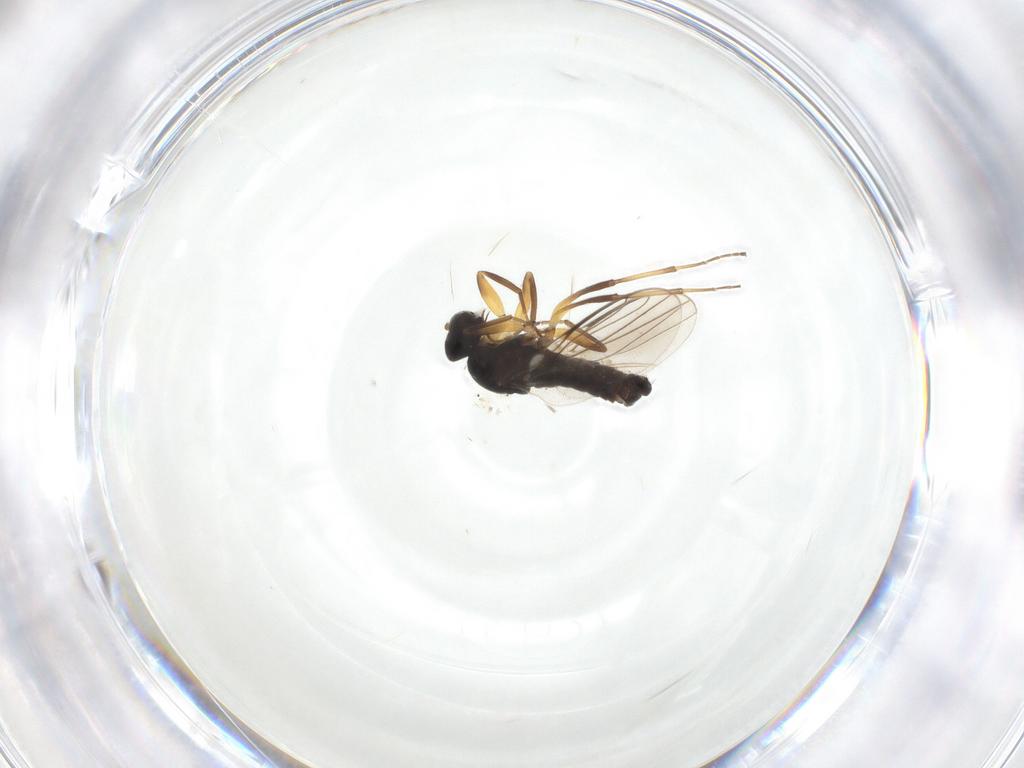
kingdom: Animalia
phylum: Arthropoda
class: Insecta
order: Diptera
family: Hybotidae
